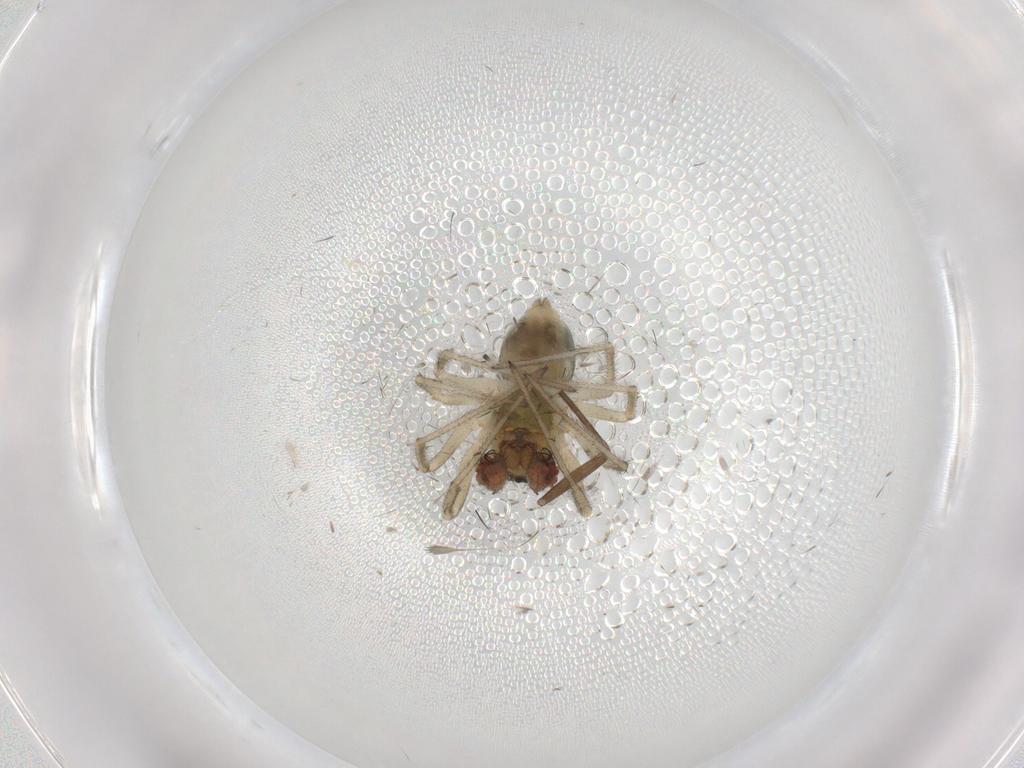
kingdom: Animalia
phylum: Arthropoda
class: Arachnida
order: Araneae
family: Linyphiidae
